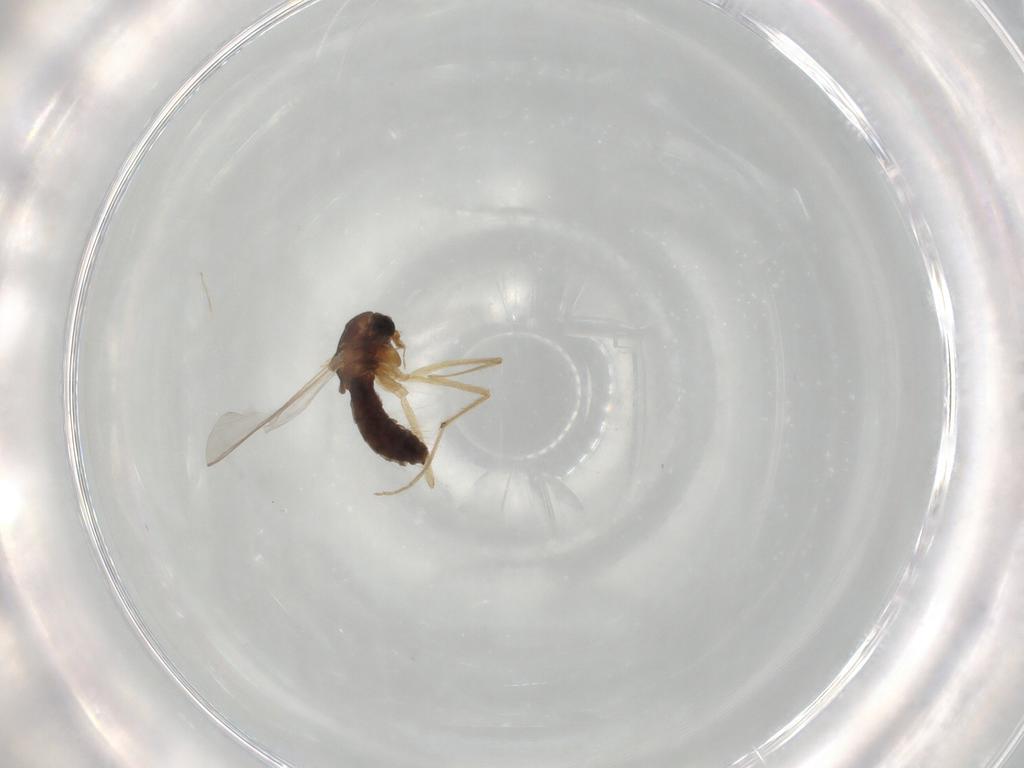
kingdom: Animalia
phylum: Arthropoda
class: Insecta
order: Diptera
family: Chironomidae
